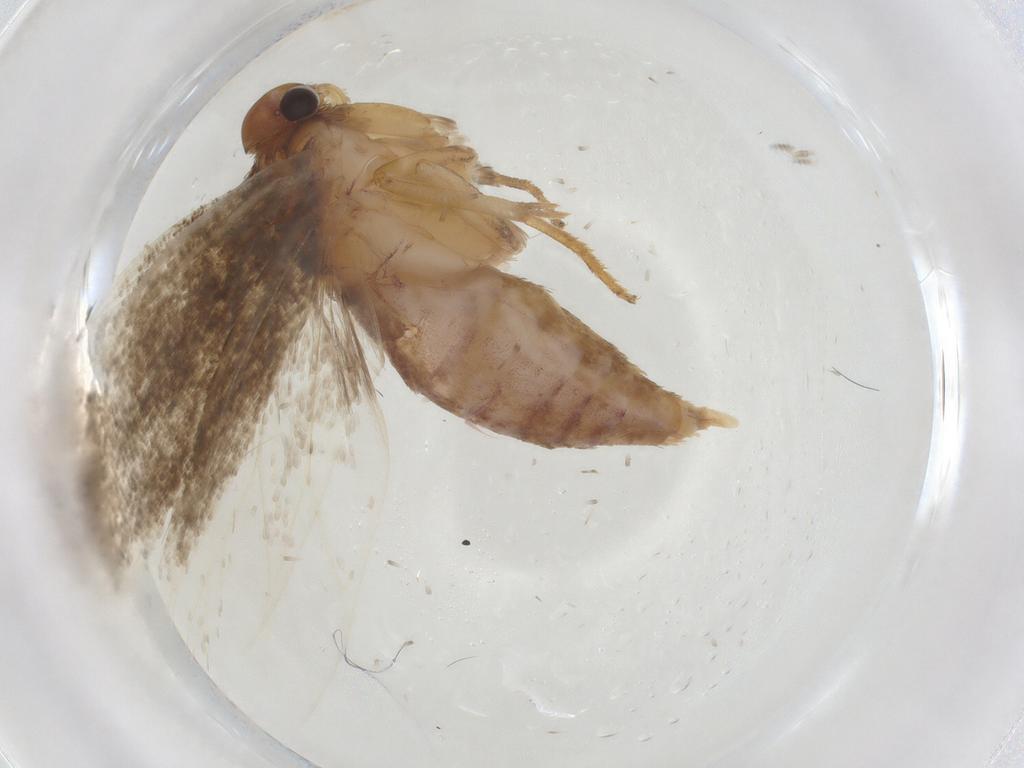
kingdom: Animalia
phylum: Arthropoda
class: Insecta
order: Lepidoptera
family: Gelechiidae
